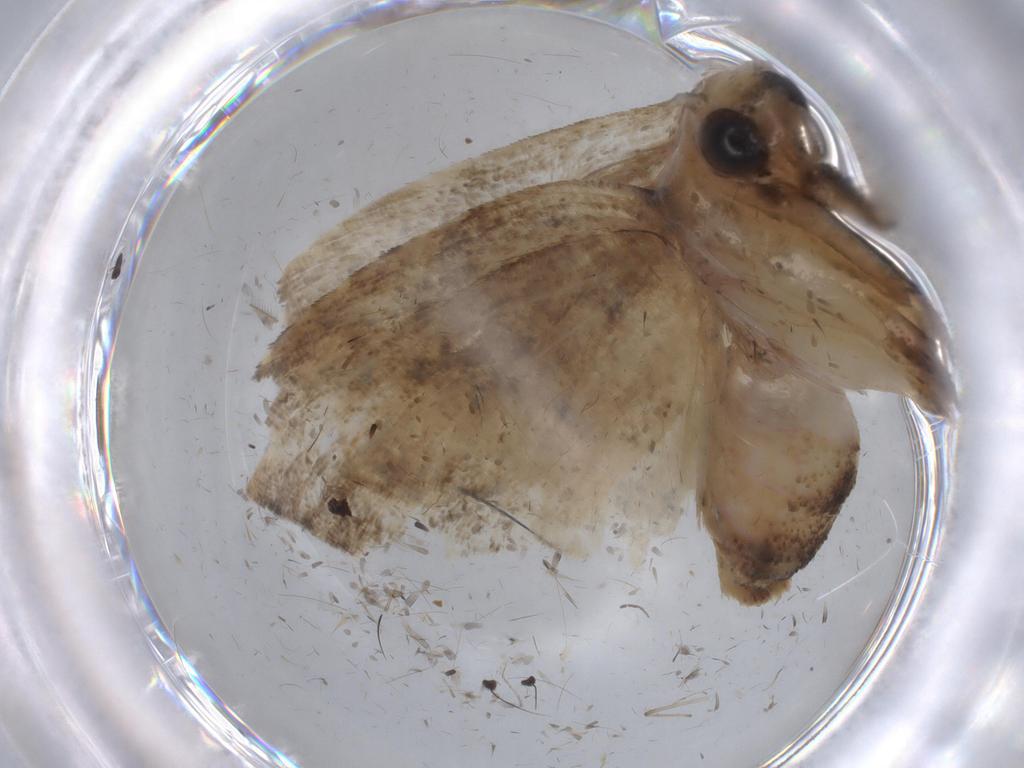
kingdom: Animalia
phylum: Arthropoda
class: Insecta
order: Lepidoptera
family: Noctuidae
